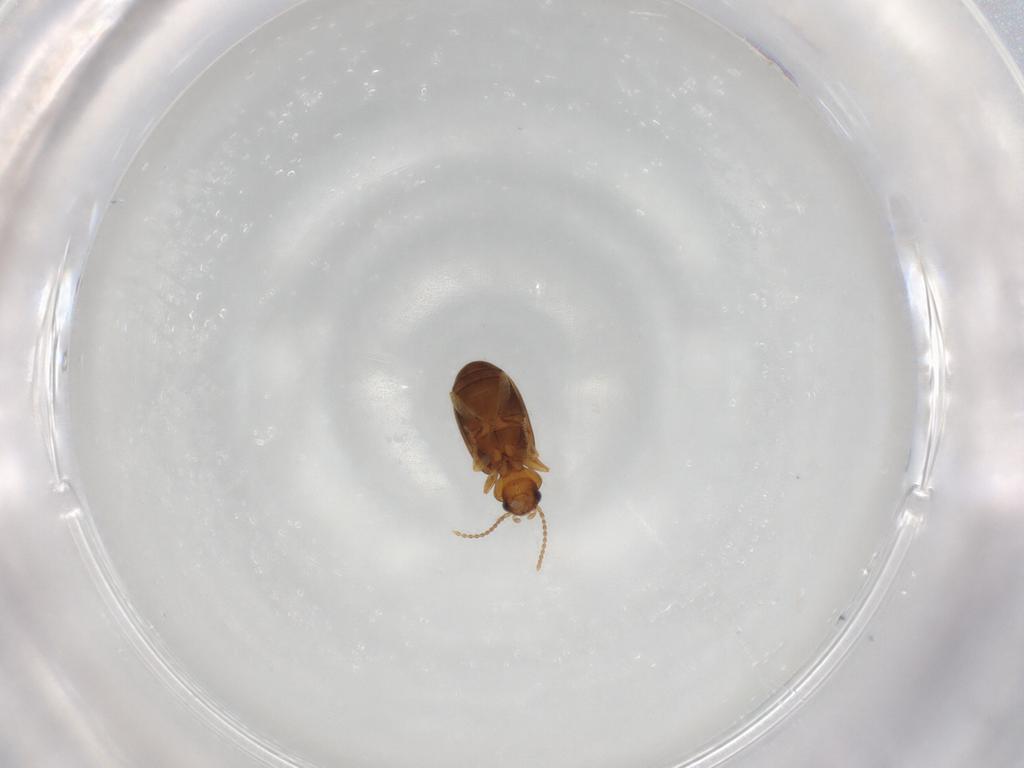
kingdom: Animalia
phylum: Arthropoda
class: Insecta
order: Coleoptera
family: Carabidae
